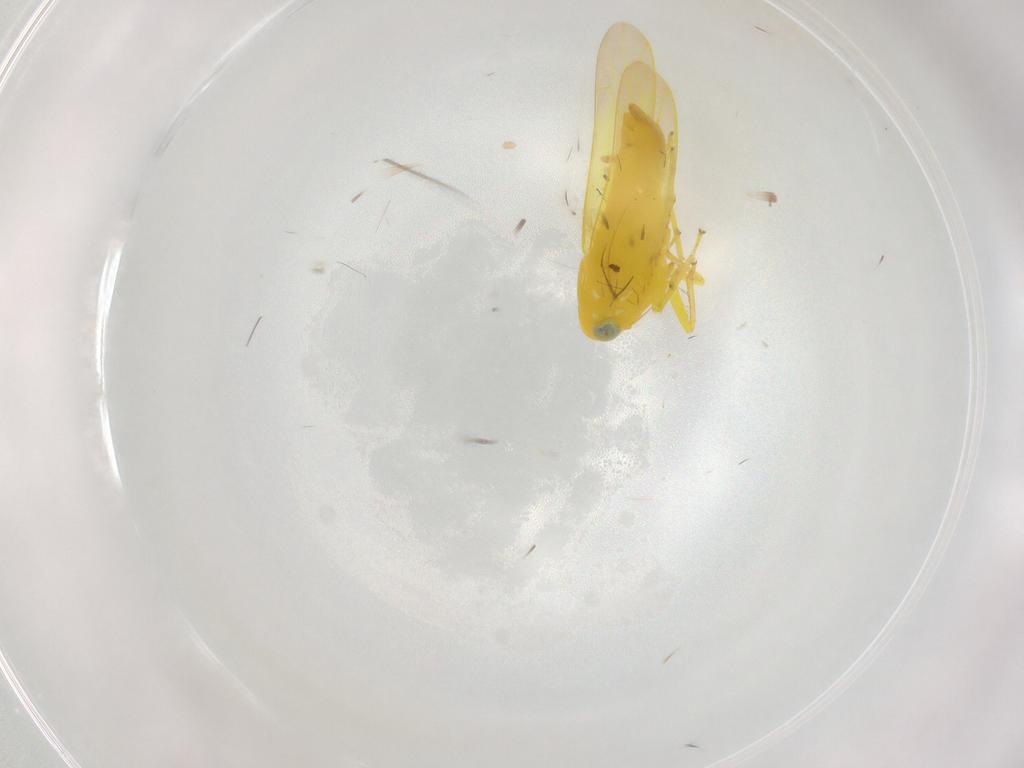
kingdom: Animalia
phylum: Arthropoda
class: Insecta
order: Hemiptera
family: Cicadellidae
